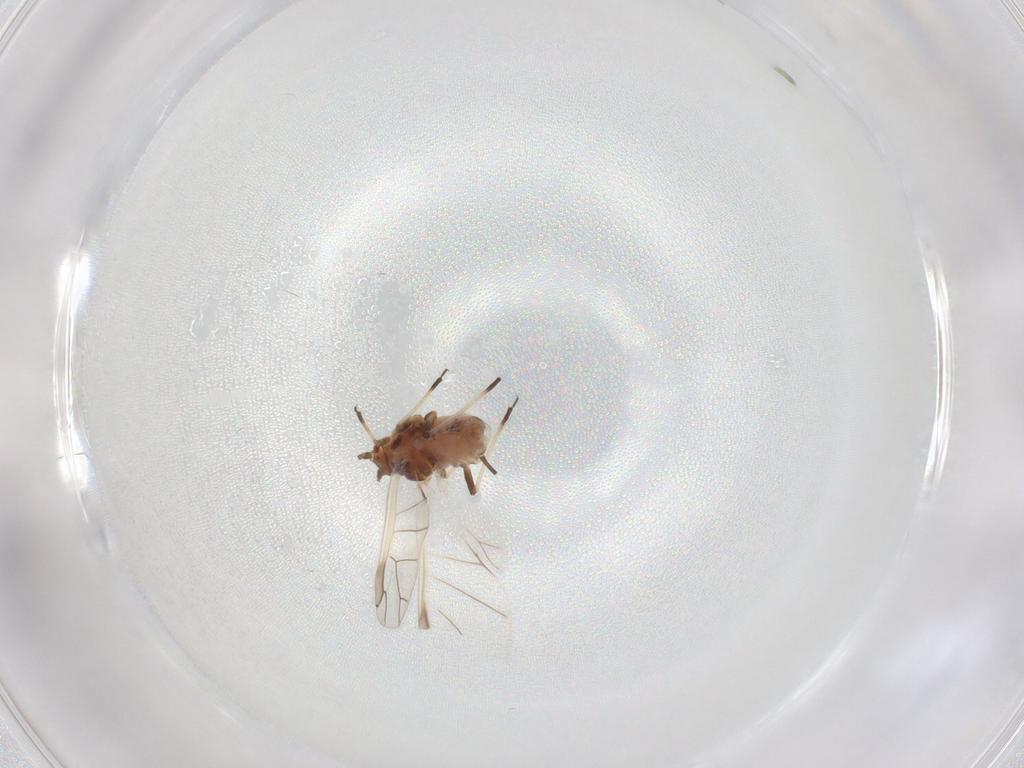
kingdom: Animalia
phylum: Arthropoda
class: Insecta
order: Hemiptera
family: Aphididae
